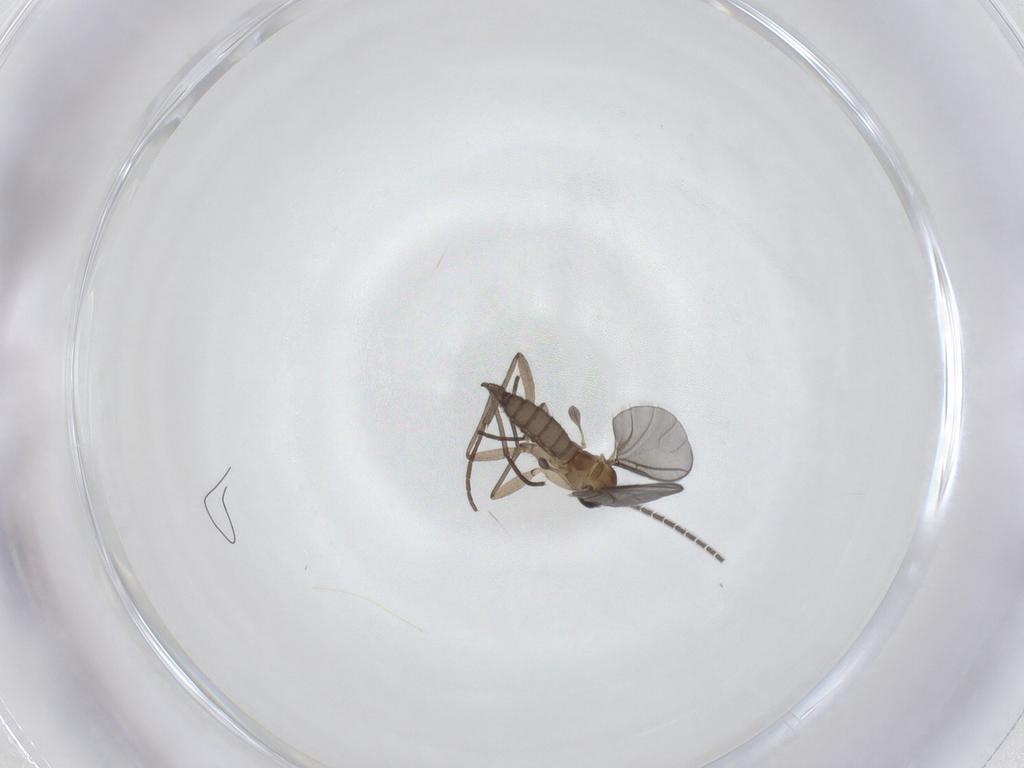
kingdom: Animalia
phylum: Arthropoda
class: Insecta
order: Diptera
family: Sciaridae
